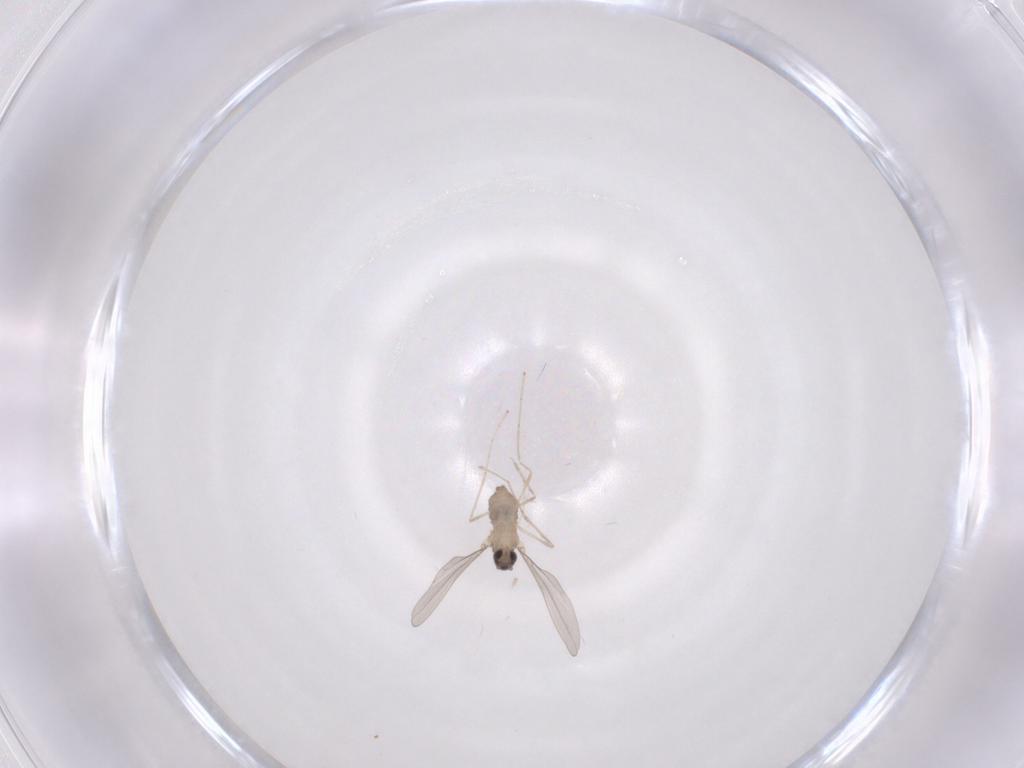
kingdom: Animalia
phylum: Arthropoda
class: Insecta
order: Diptera
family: Cecidomyiidae
